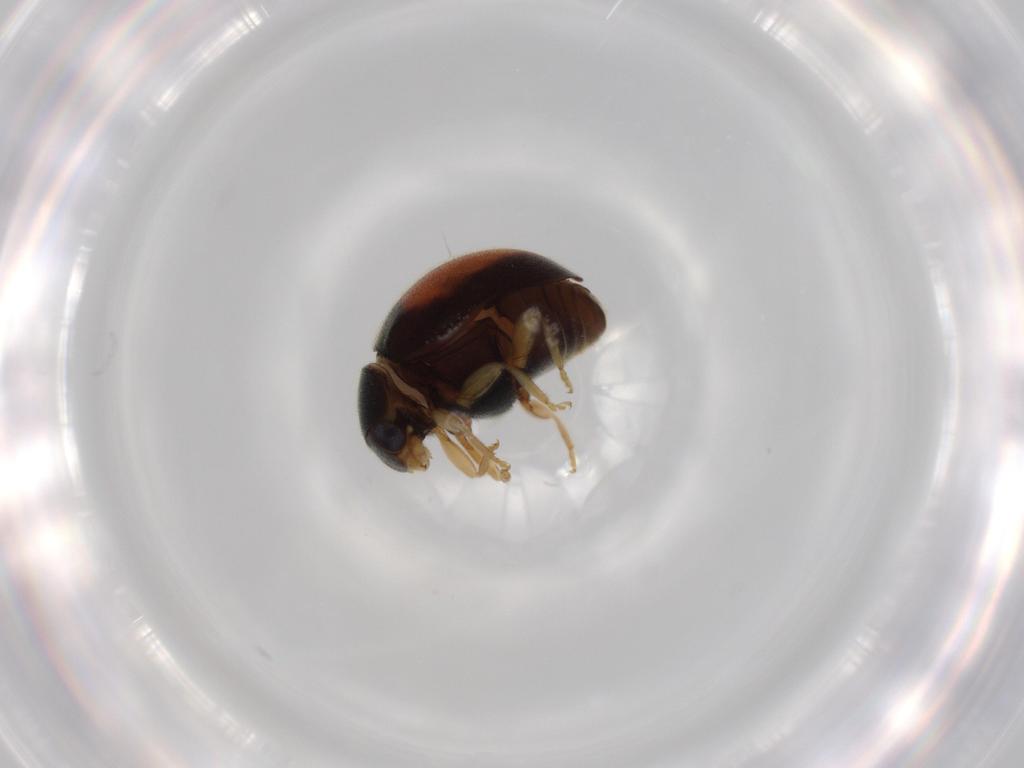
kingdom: Animalia
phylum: Arthropoda
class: Insecta
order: Coleoptera
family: Coccinellidae
